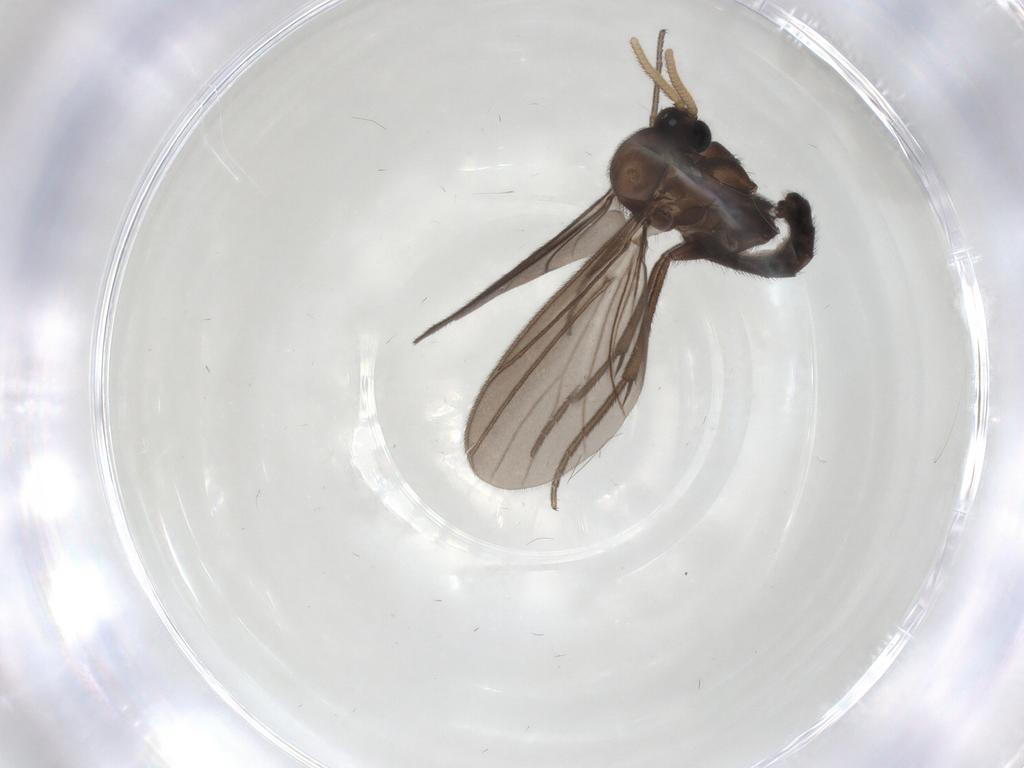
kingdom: Animalia
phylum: Arthropoda
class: Insecta
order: Diptera
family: Mycetophilidae
